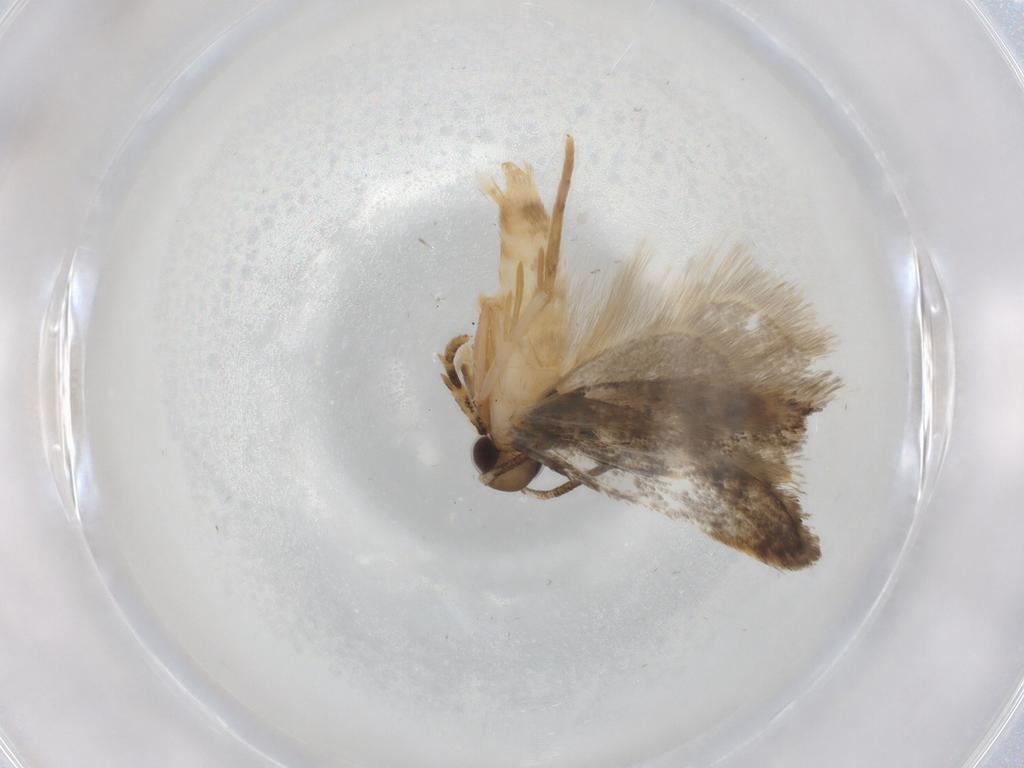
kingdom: Animalia
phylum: Arthropoda
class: Insecta
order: Lepidoptera
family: Autostichidae
